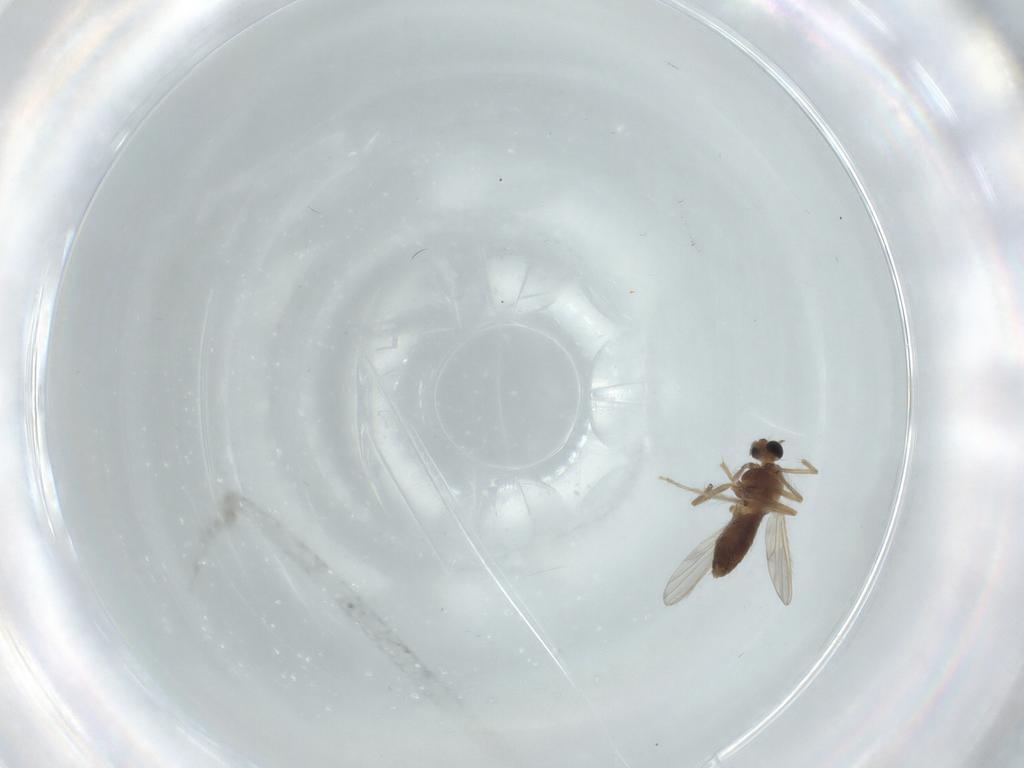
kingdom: Animalia
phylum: Arthropoda
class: Insecta
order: Diptera
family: Chironomidae
